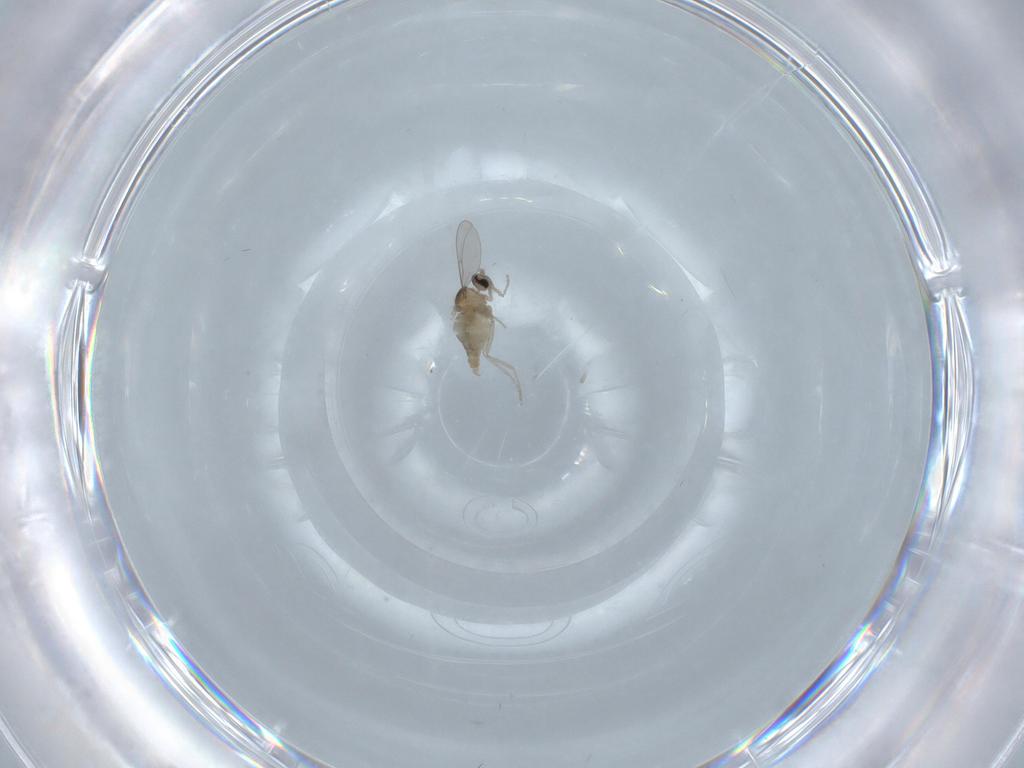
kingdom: Animalia
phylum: Arthropoda
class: Insecta
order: Diptera
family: Cecidomyiidae
